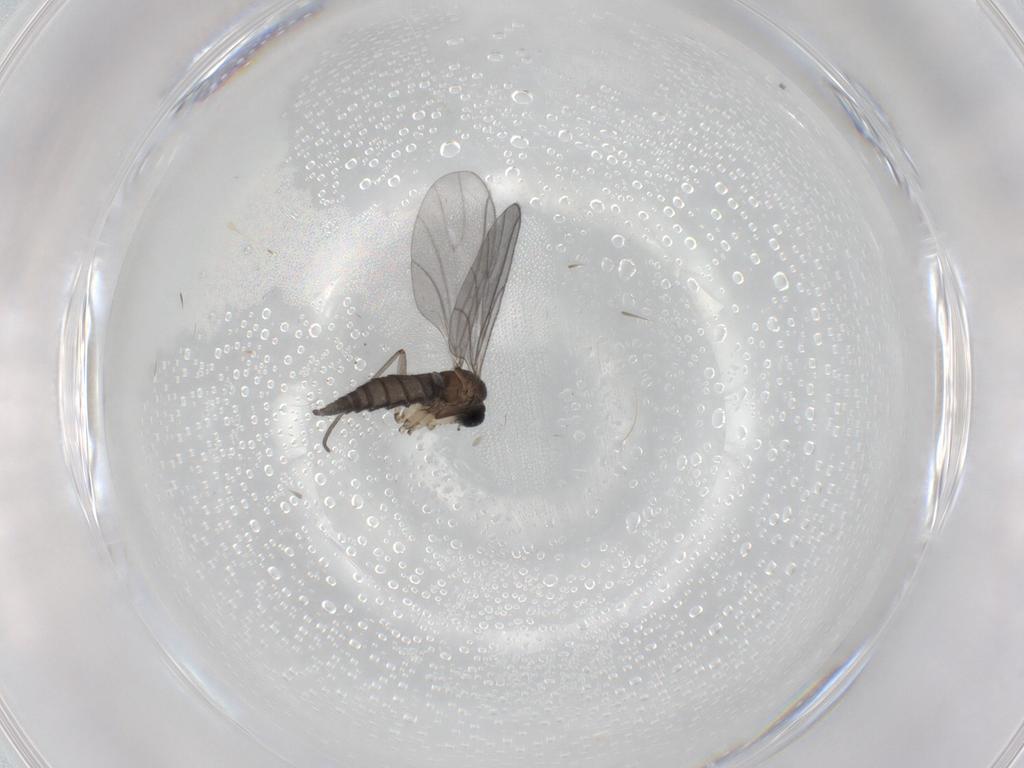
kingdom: Animalia
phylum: Arthropoda
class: Insecta
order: Diptera
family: Sciaridae
